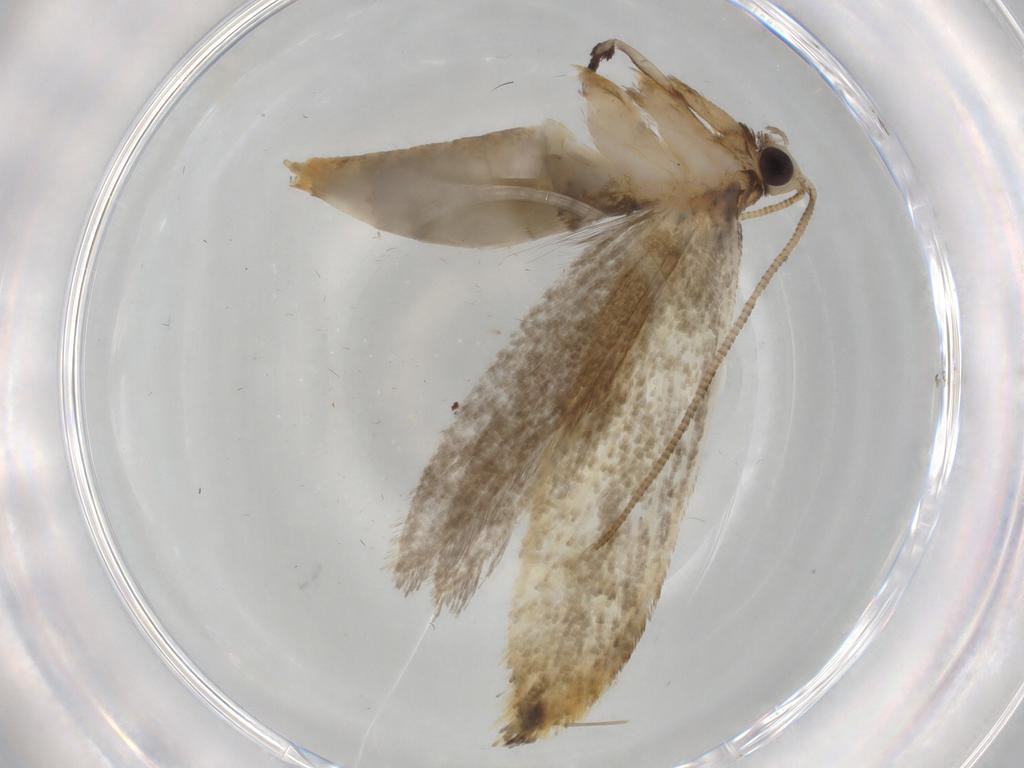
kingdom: Animalia
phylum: Arthropoda
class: Insecta
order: Lepidoptera
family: Tineidae
